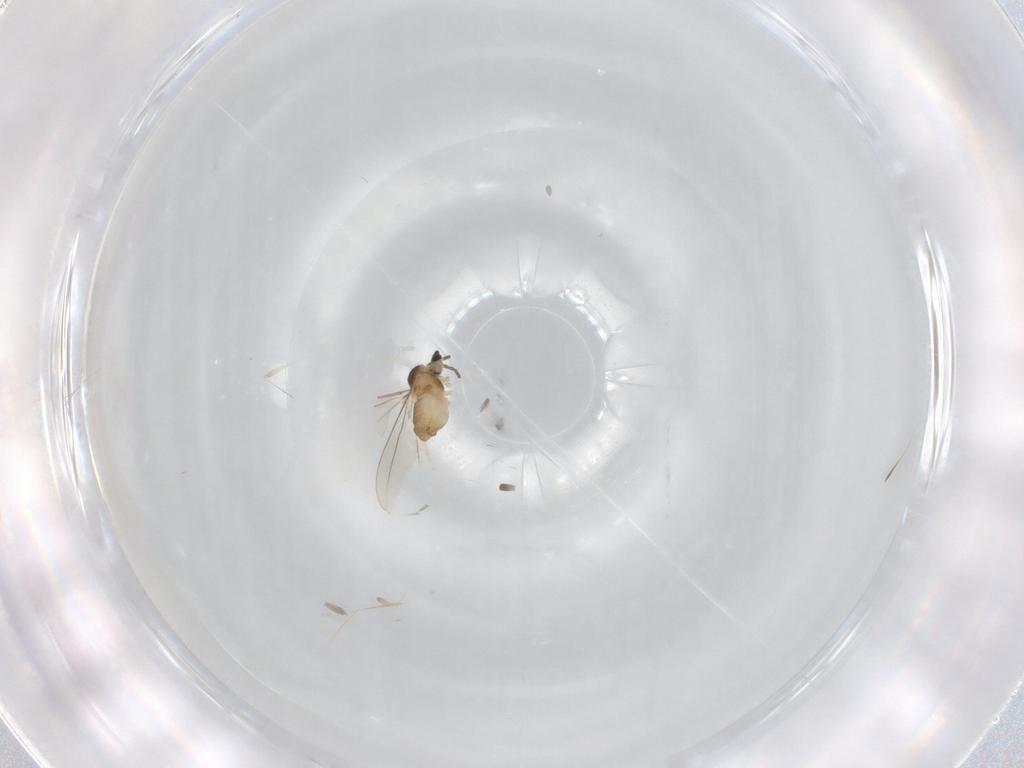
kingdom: Animalia
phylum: Arthropoda
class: Insecta
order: Diptera
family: Cecidomyiidae
